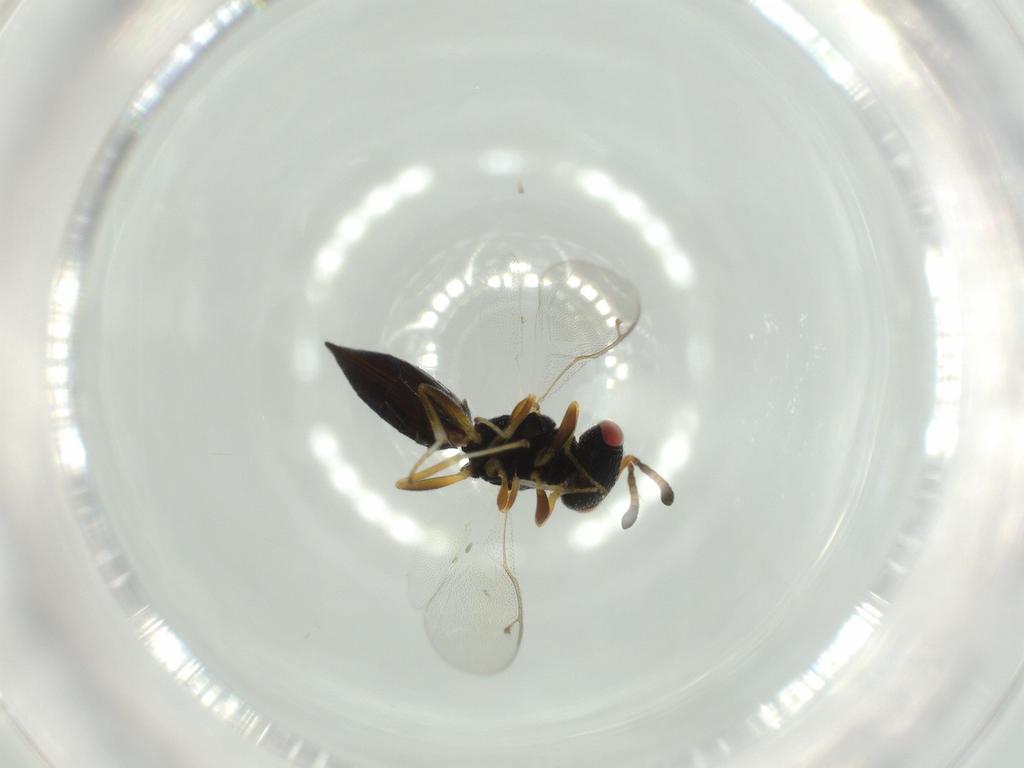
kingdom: Animalia
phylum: Arthropoda
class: Insecta
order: Hymenoptera
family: Pteromalidae
